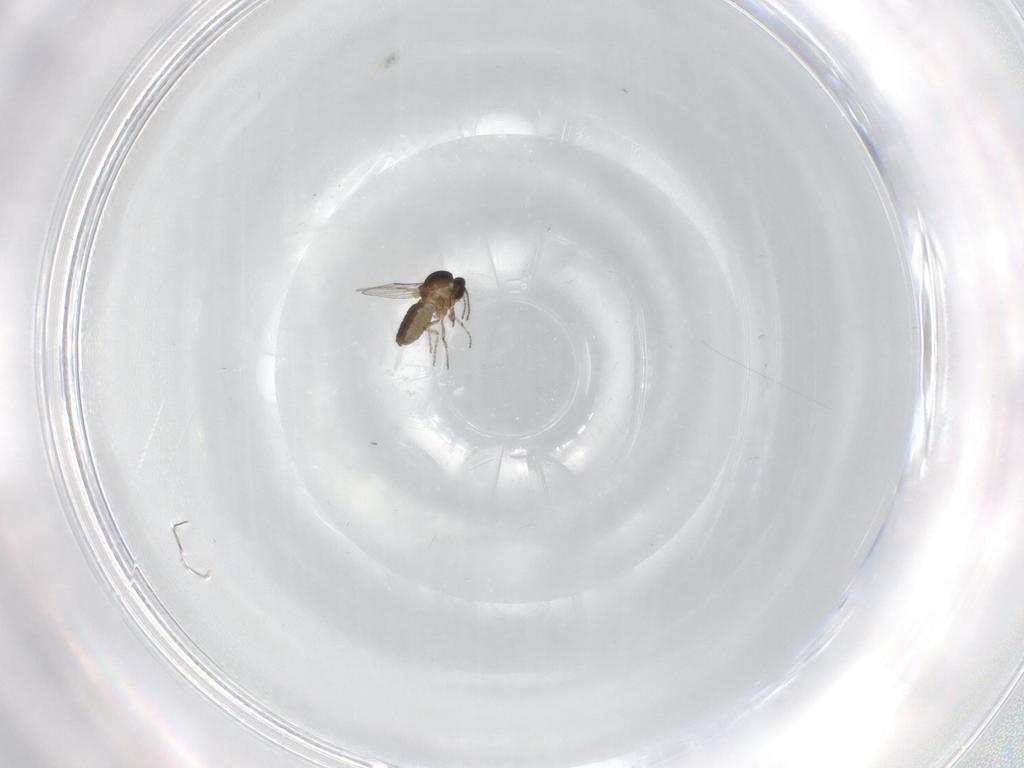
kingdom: Animalia
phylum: Arthropoda
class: Insecta
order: Diptera
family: Ceratopogonidae
